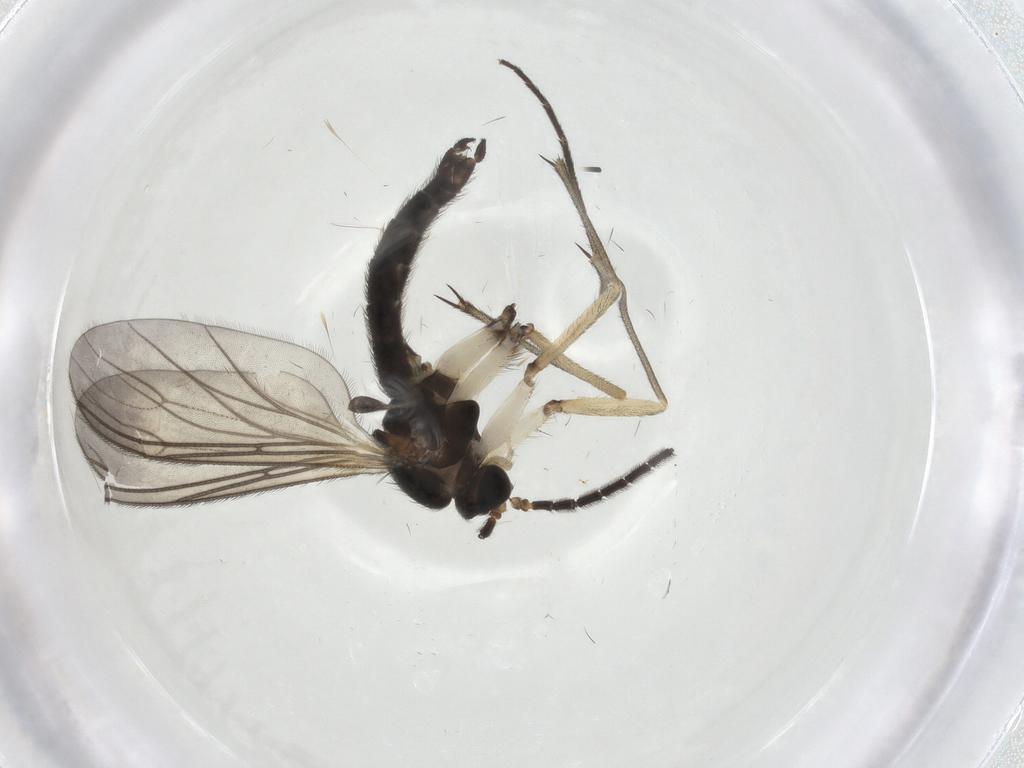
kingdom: Animalia
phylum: Arthropoda
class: Insecta
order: Diptera
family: Sciaridae
